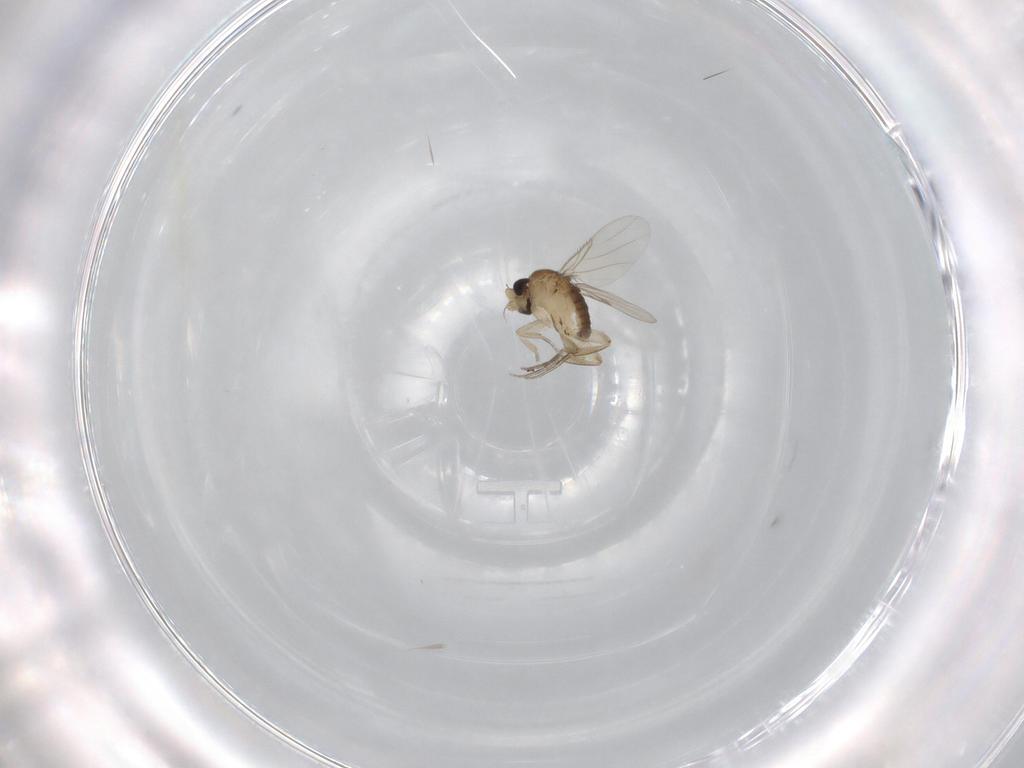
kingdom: Animalia
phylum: Arthropoda
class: Insecta
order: Diptera
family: Phoridae
